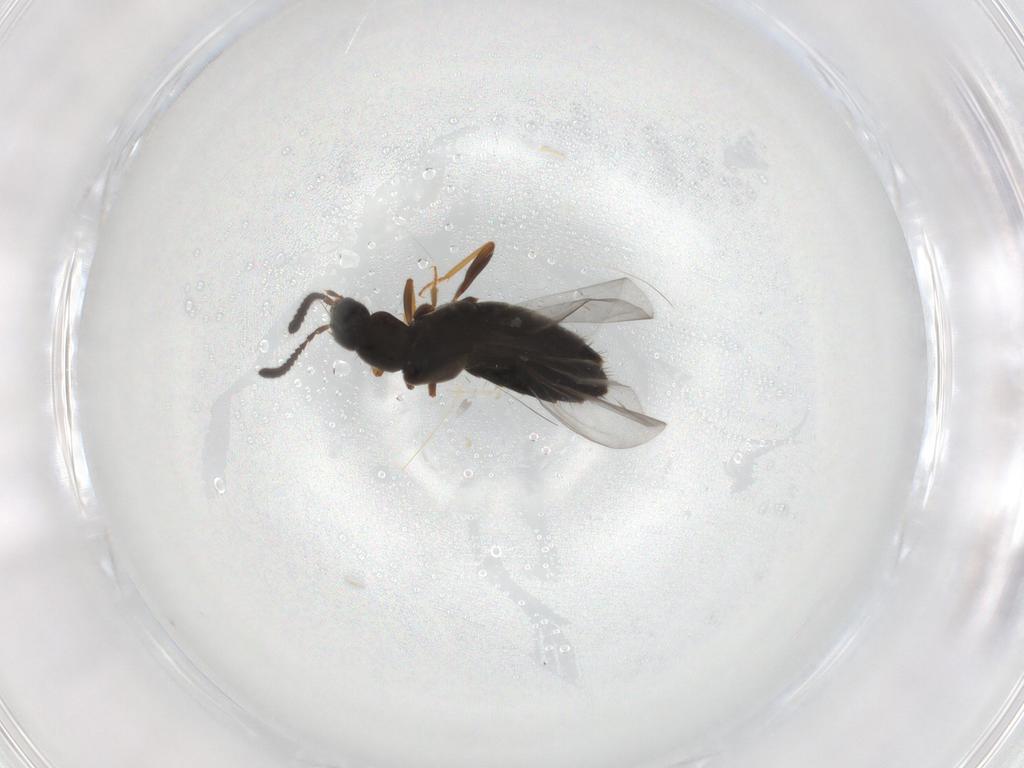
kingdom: Animalia
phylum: Arthropoda
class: Insecta
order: Coleoptera
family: Staphylinidae
